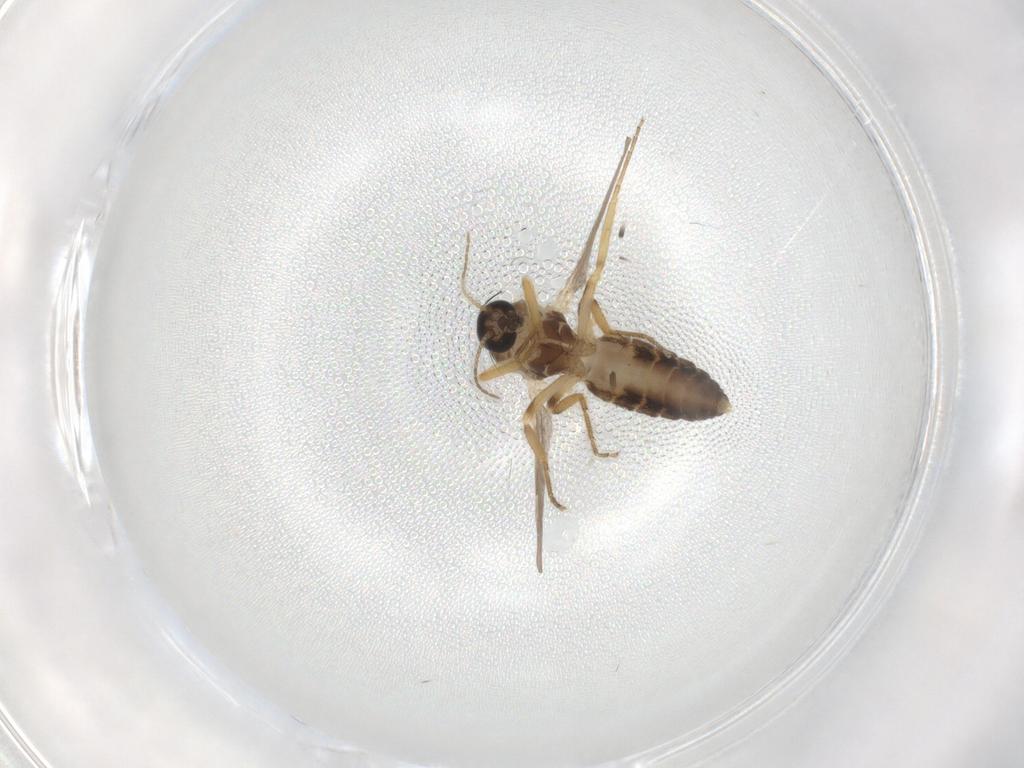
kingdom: Animalia
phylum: Arthropoda
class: Insecta
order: Diptera
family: Ceratopogonidae
